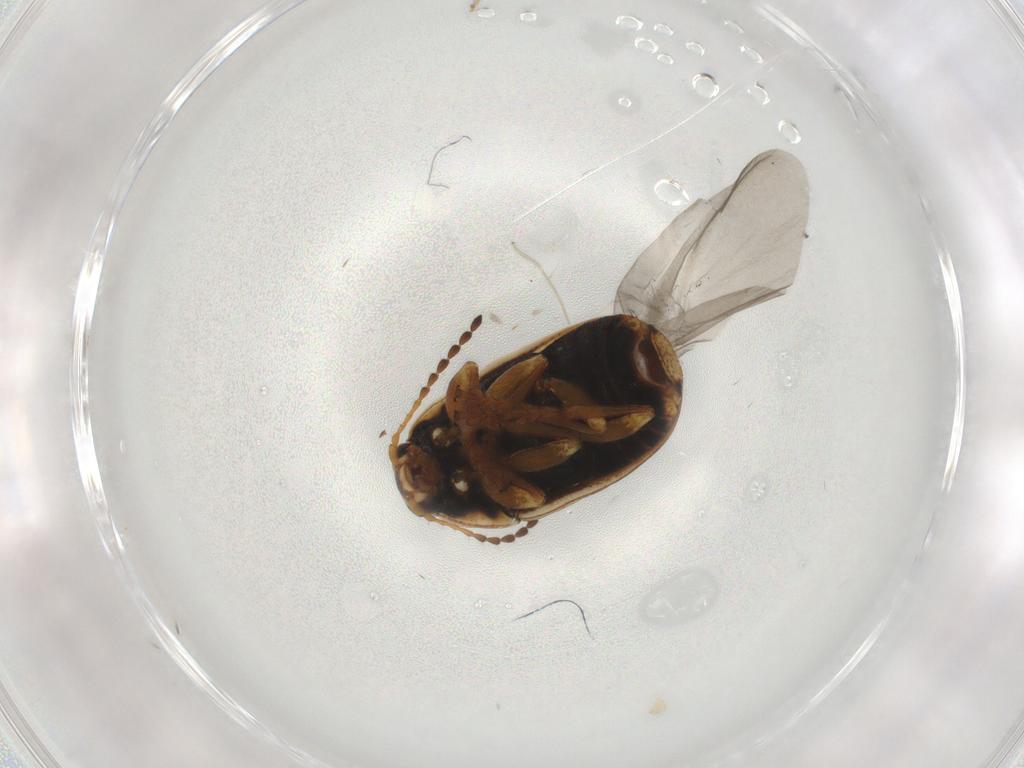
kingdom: Animalia
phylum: Arthropoda
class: Insecta
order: Coleoptera
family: Chrysomelidae
